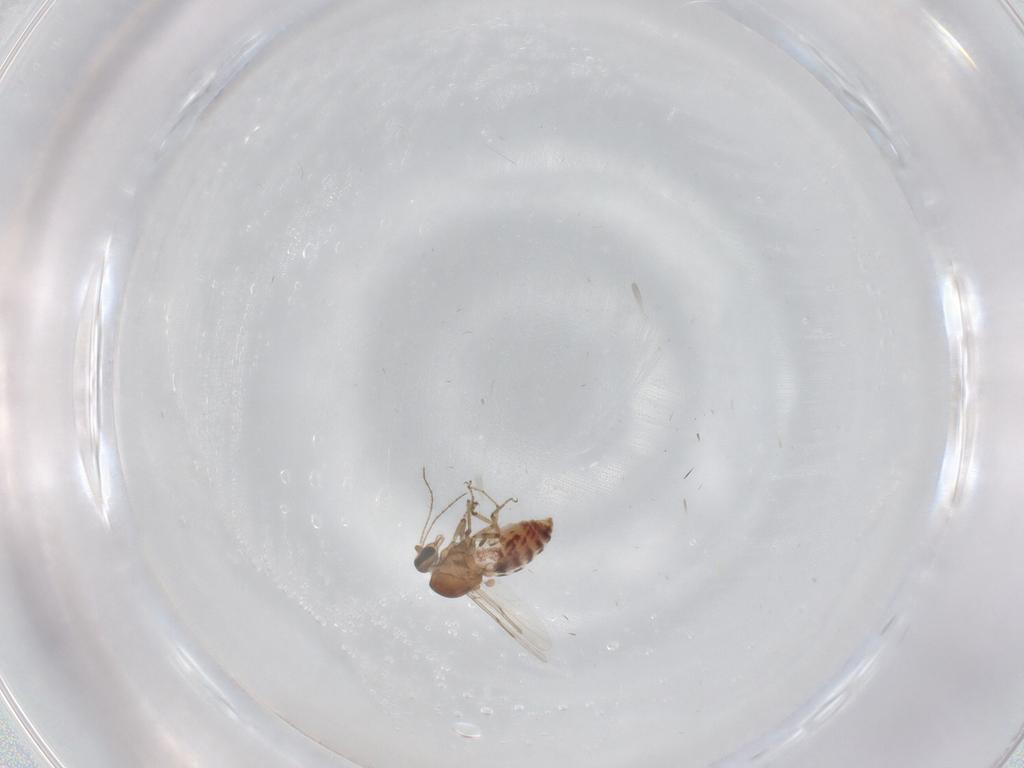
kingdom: Animalia
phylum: Arthropoda
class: Insecta
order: Diptera
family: Ceratopogonidae
